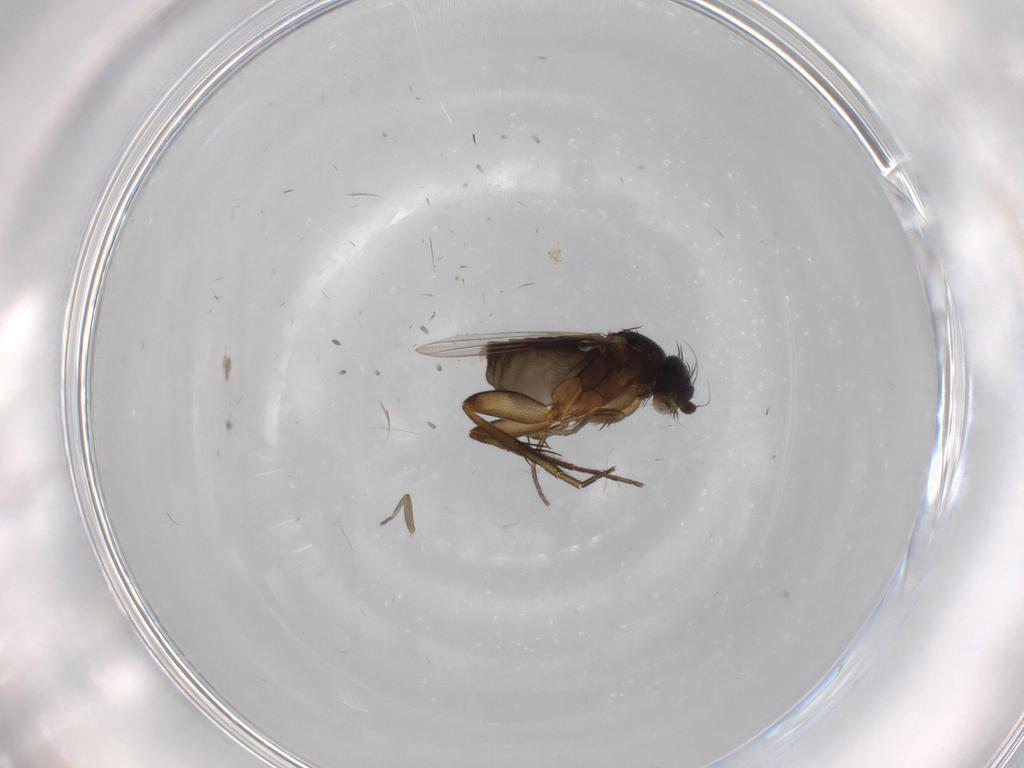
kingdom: Animalia
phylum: Arthropoda
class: Insecta
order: Diptera
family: Phoridae
